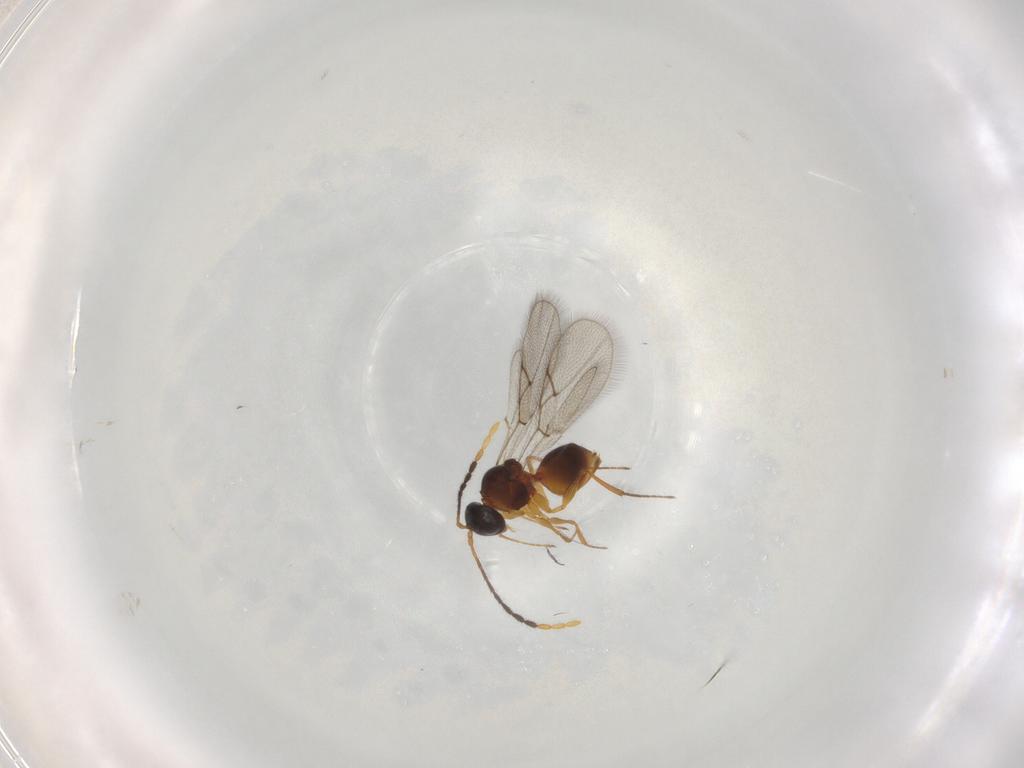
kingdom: Animalia
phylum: Arthropoda
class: Insecta
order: Hymenoptera
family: Figitidae
